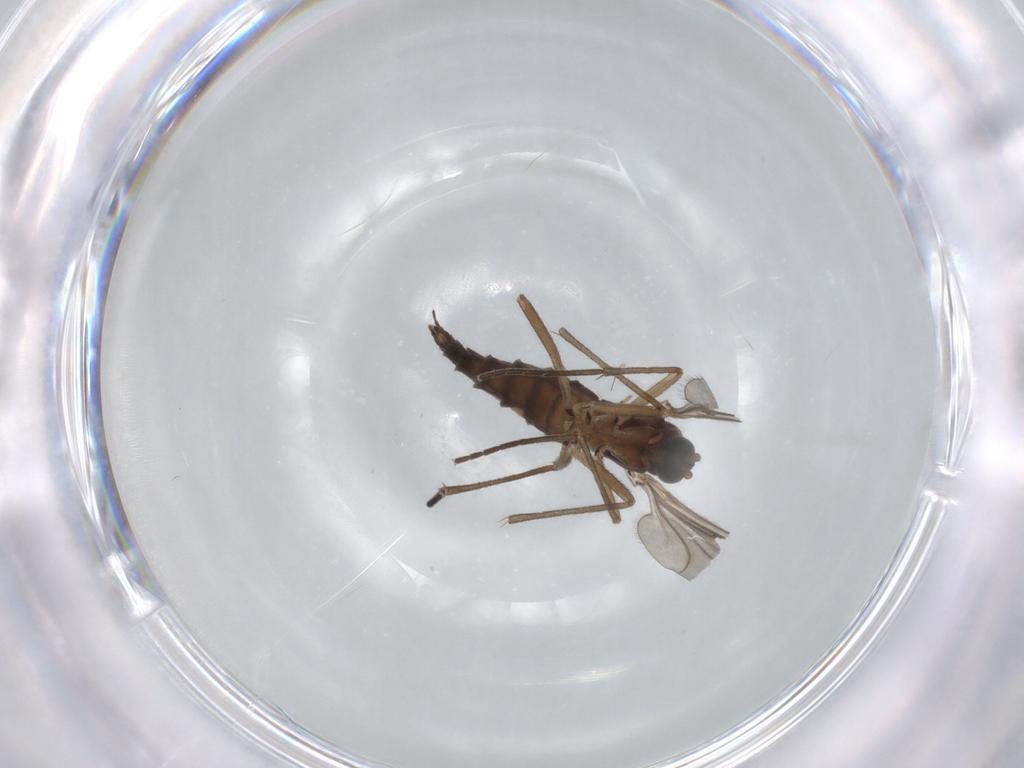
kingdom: Animalia
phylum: Arthropoda
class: Insecta
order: Diptera
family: Sciaridae
